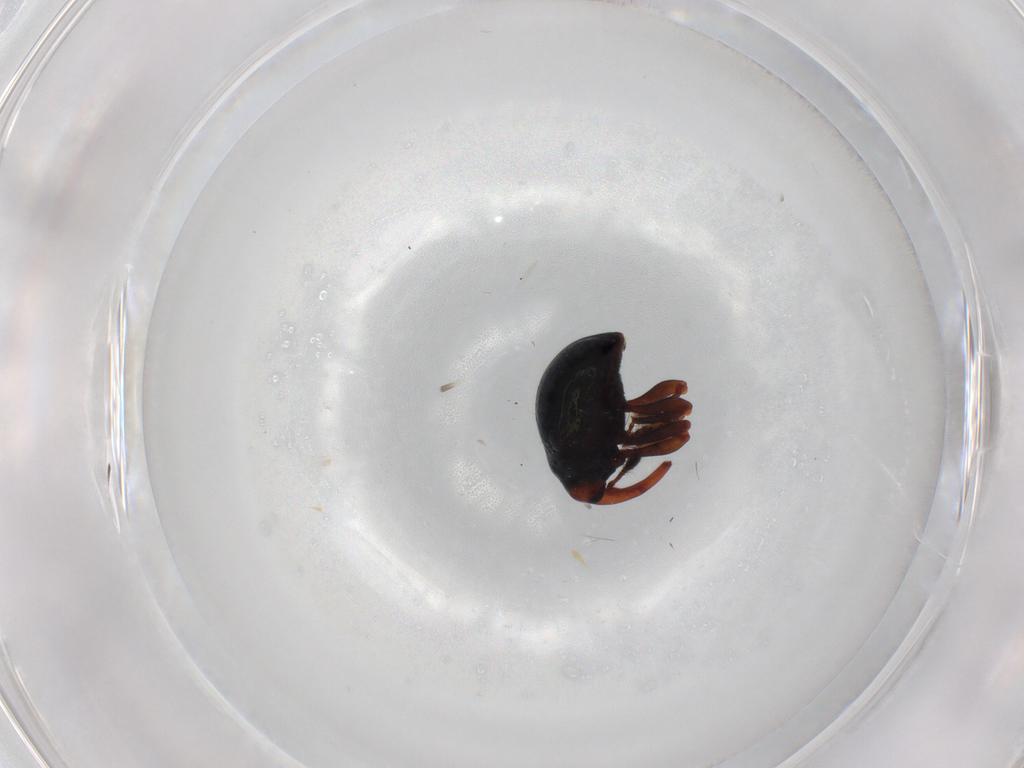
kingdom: Animalia
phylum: Arthropoda
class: Insecta
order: Coleoptera
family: Curculionidae
